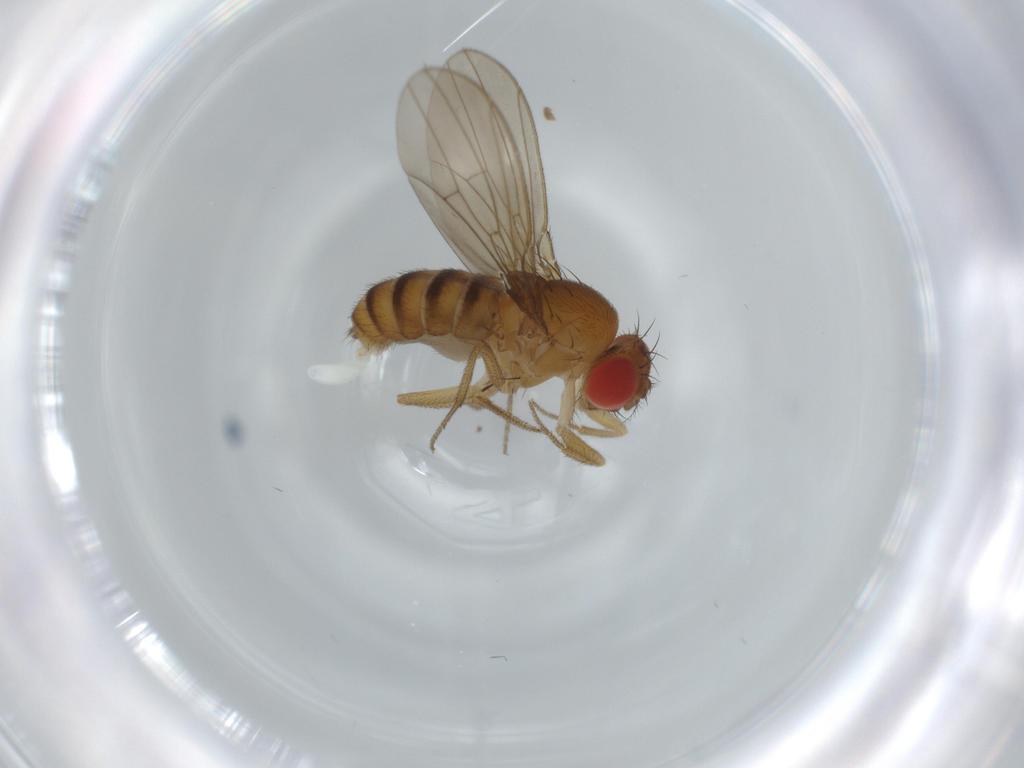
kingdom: Animalia
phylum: Arthropoda
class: Insecta
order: Diptera
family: Drosophilidae
